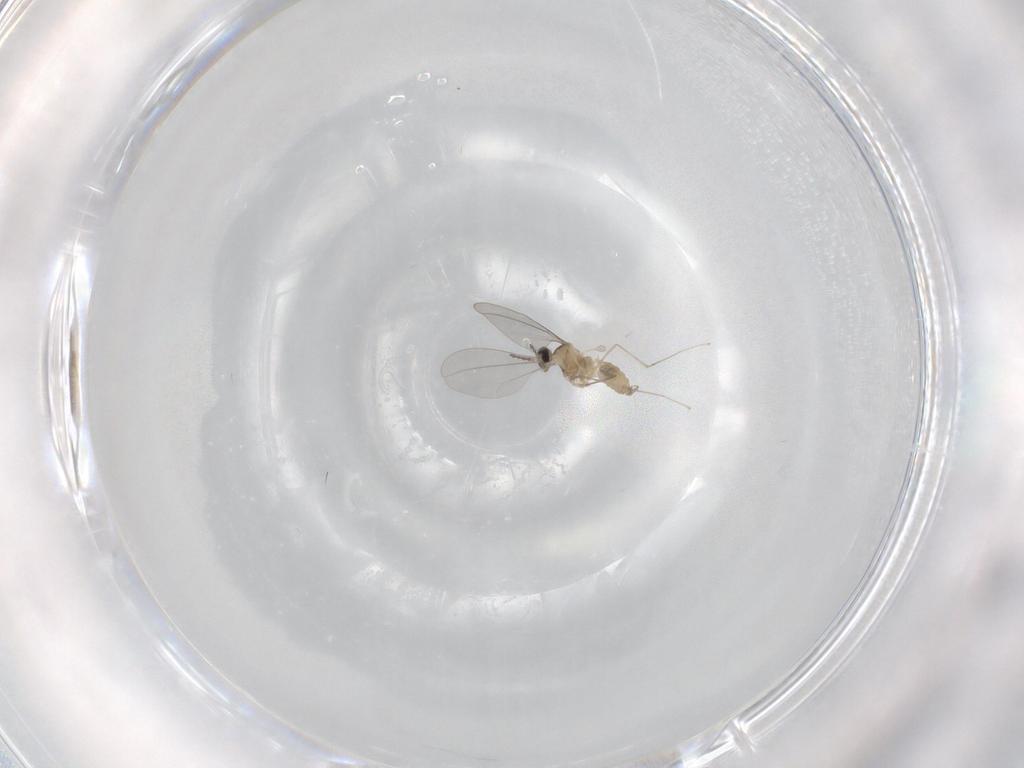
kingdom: Animalia
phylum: Arthropoda
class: Insecta
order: Diptera
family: Cecidomyiidae
